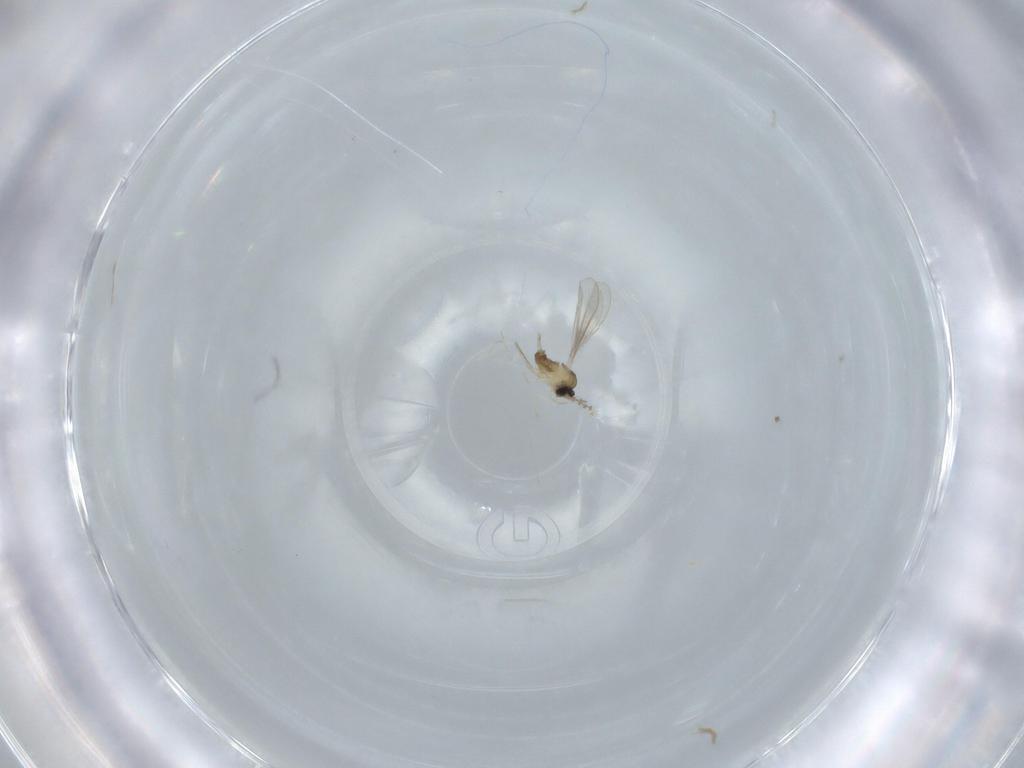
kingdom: Animalia
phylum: Arthropoda
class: Insecta
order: Diptera
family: Cecidomyiidae
